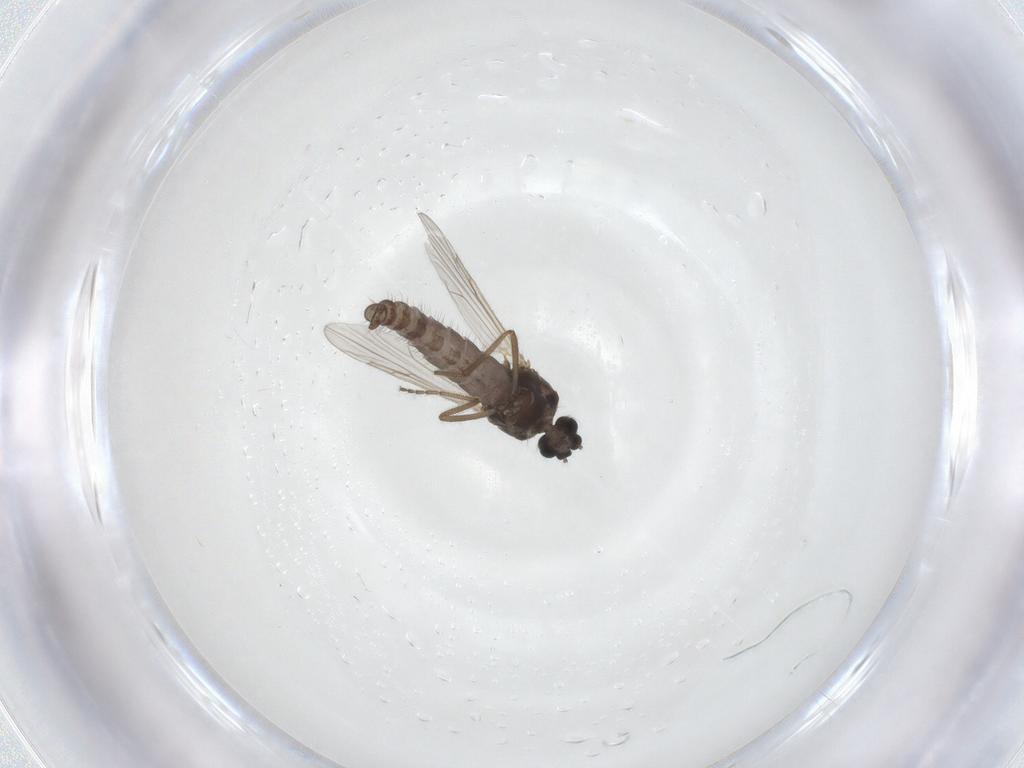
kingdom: Animalia
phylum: Arthropoda
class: Insecta
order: Diptera
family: Ceratopogonidae
